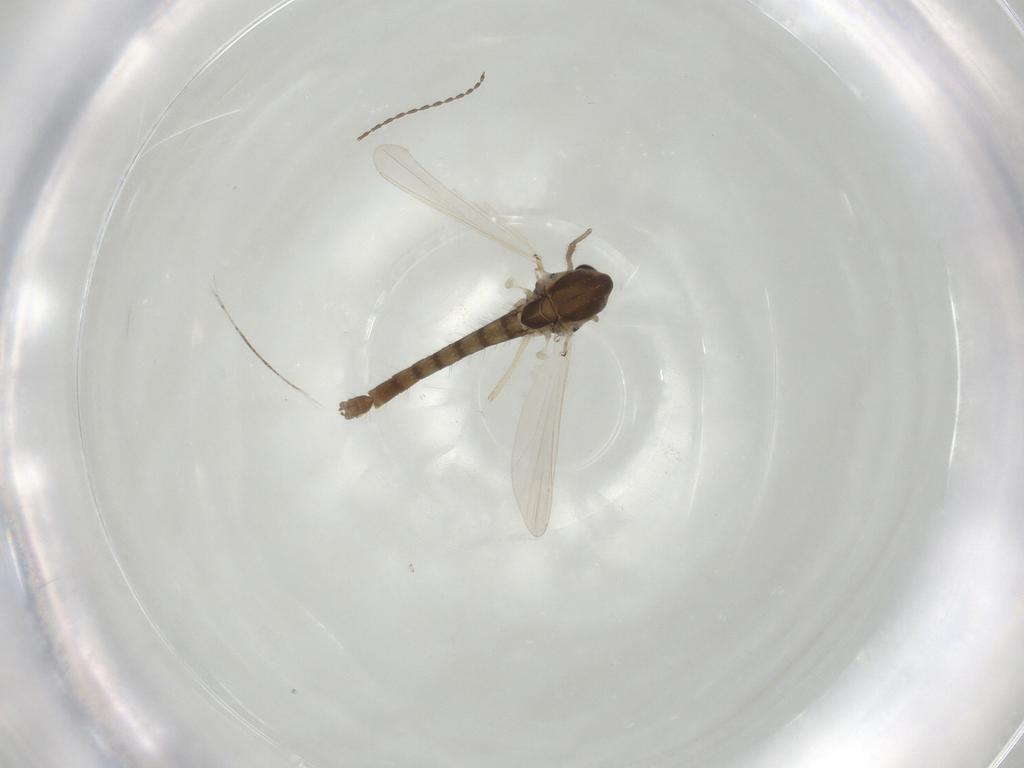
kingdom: Animalia
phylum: Arthropoda
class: Insecta
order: Diptera
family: Cecidomyiidae
